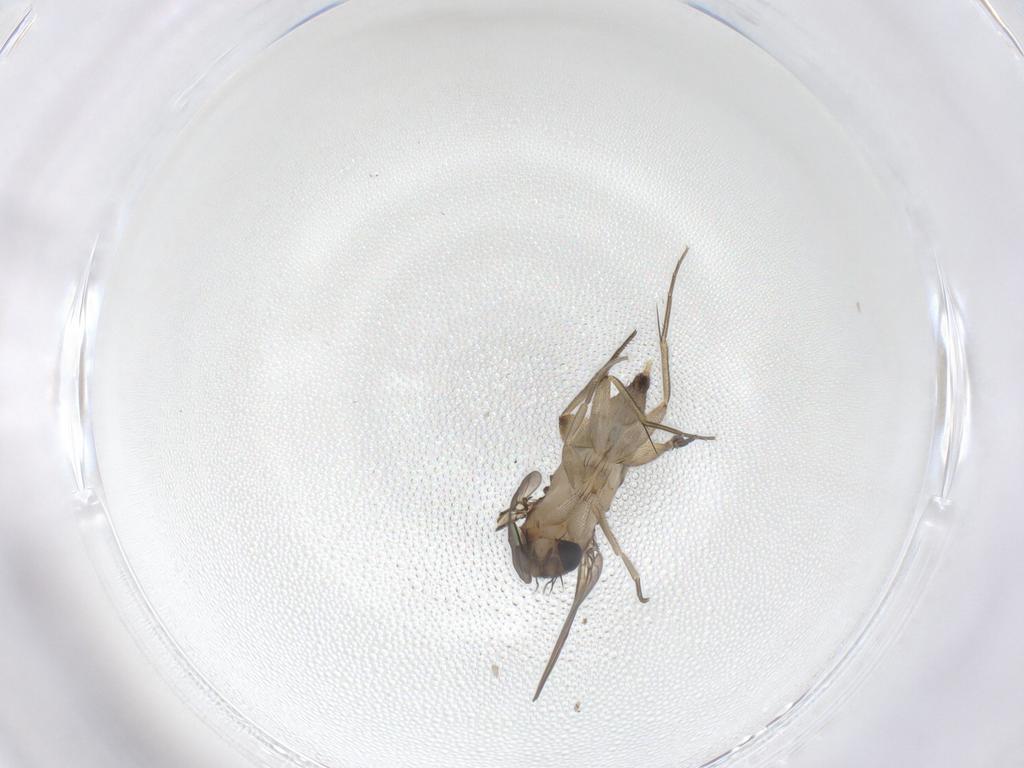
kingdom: Animalia
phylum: Arthropoda
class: Insecta
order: Diptera
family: Phoridae
